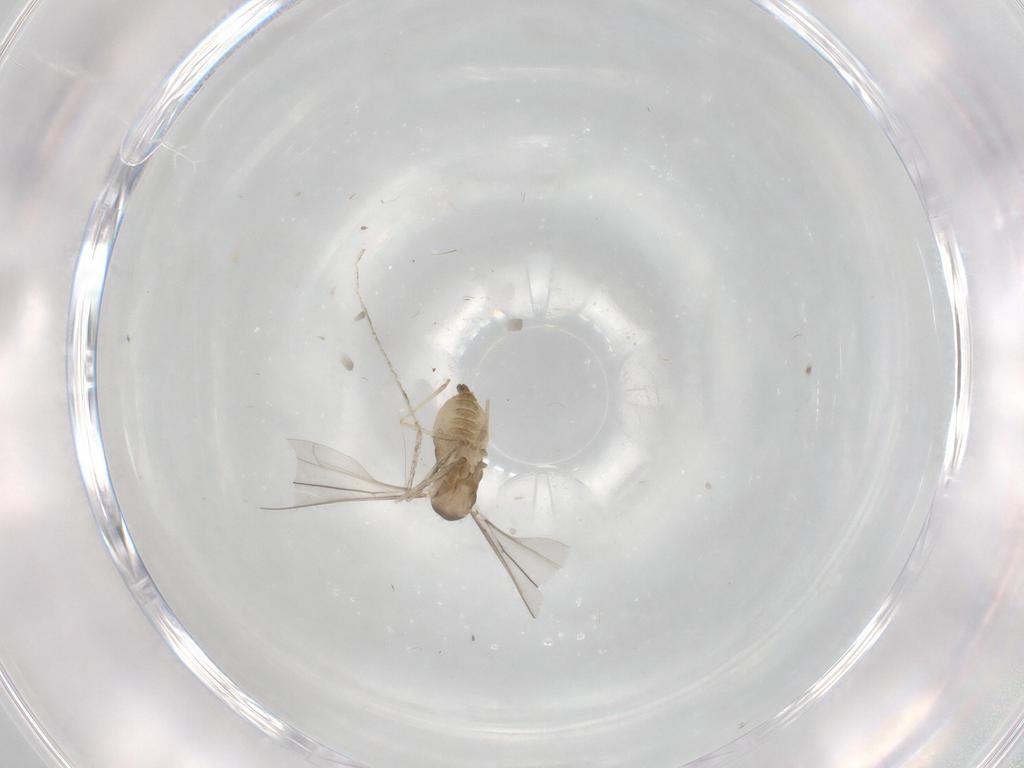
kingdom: Animalia
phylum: Arthropoda
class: Insecta
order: Diptera
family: Cecidomyiidae
